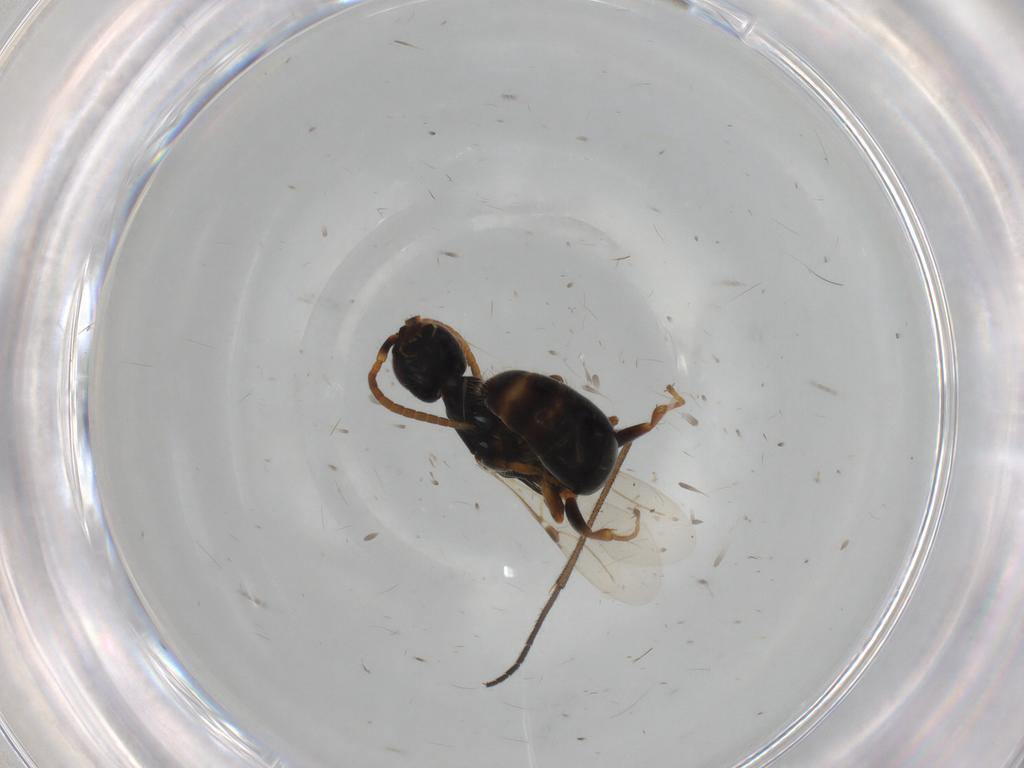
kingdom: Animalia
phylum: Arthropoda
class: Insecta
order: Hymenoptera
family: Bethylidae
